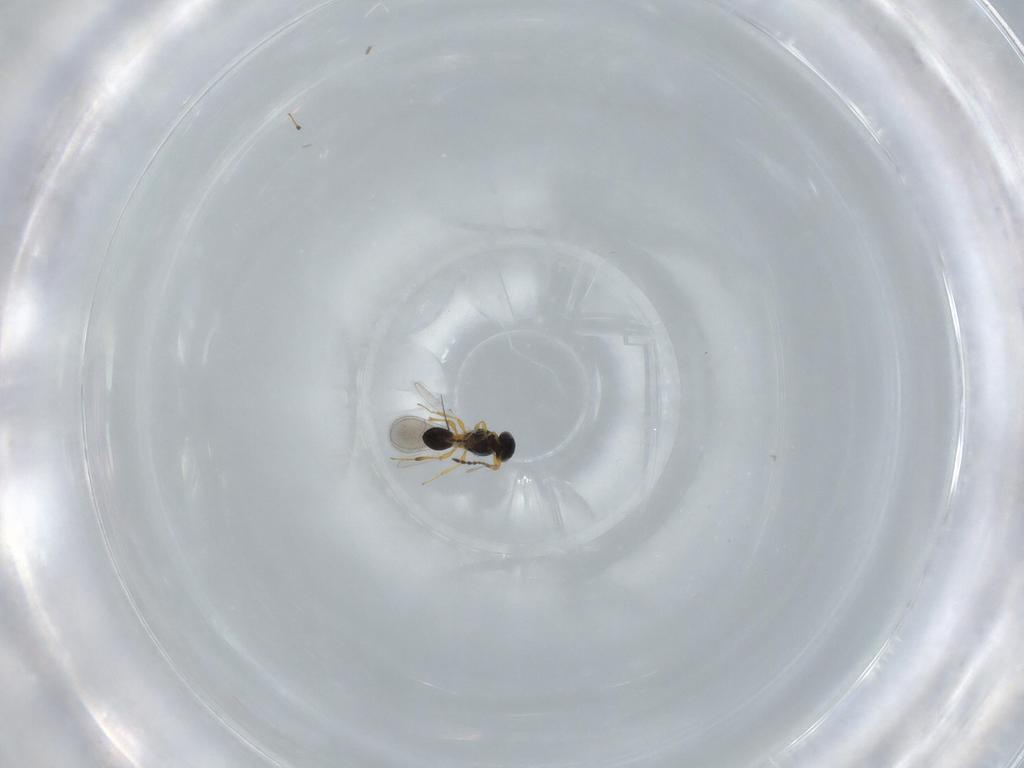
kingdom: Animalia
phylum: Arthropoda
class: Insecta
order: Hymenoptera
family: Platygastridae
